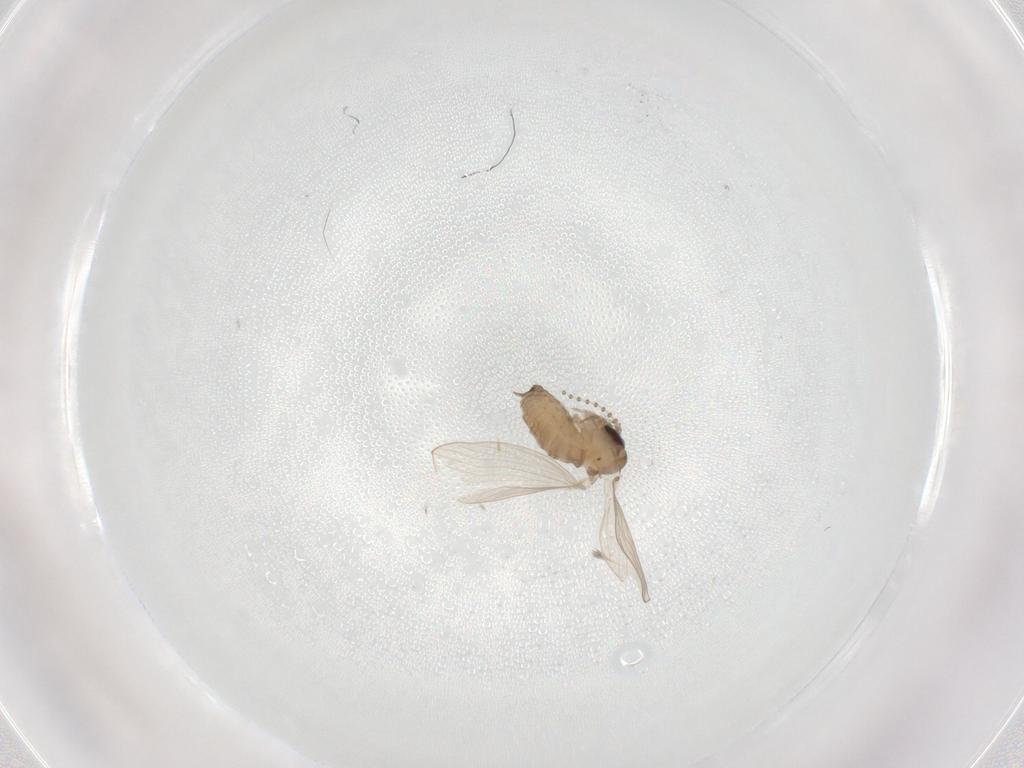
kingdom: Animalia
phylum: Arthropoda
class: Insecta
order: Diptera
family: Psychodidae
